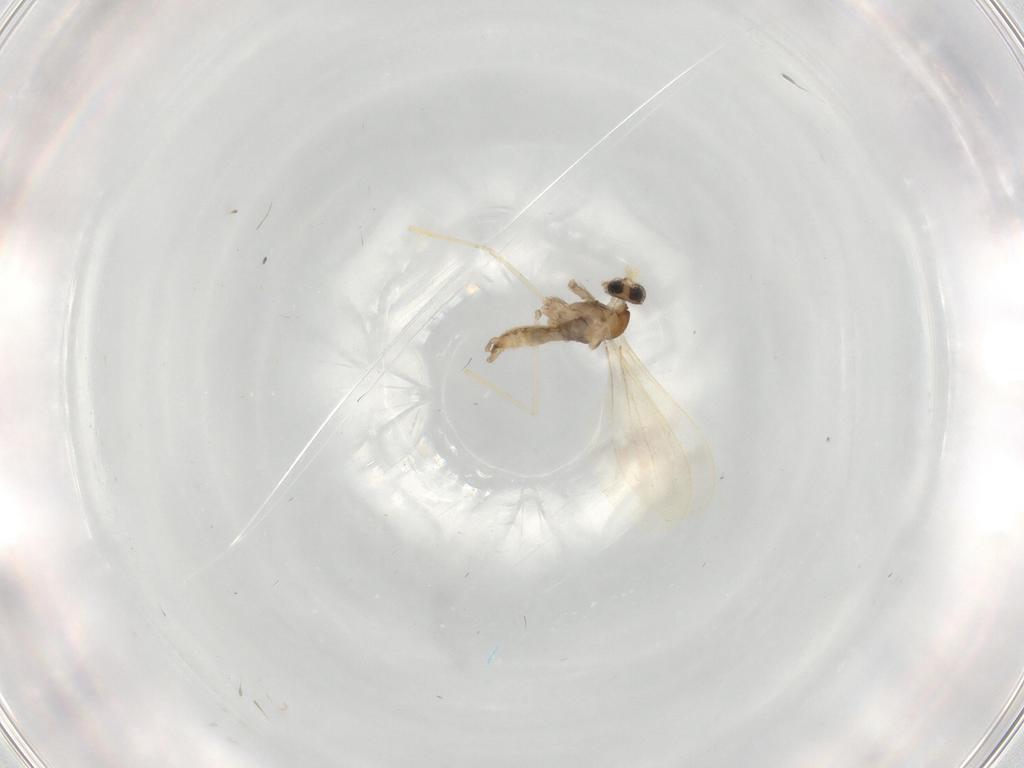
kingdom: Animalia
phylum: Arthropoda
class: Insecta
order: Diptera
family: Cecidomyiidae
